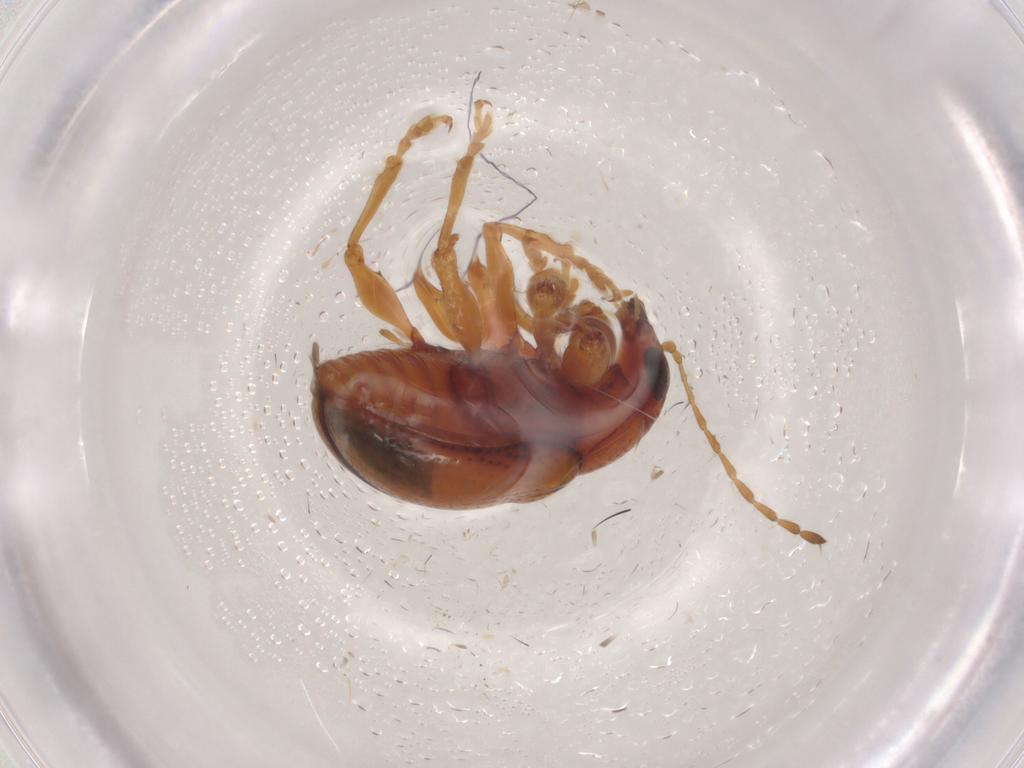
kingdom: Animalia
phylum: Arthropoda
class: Insecta
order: Coleoptera
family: Chrysomelidae
